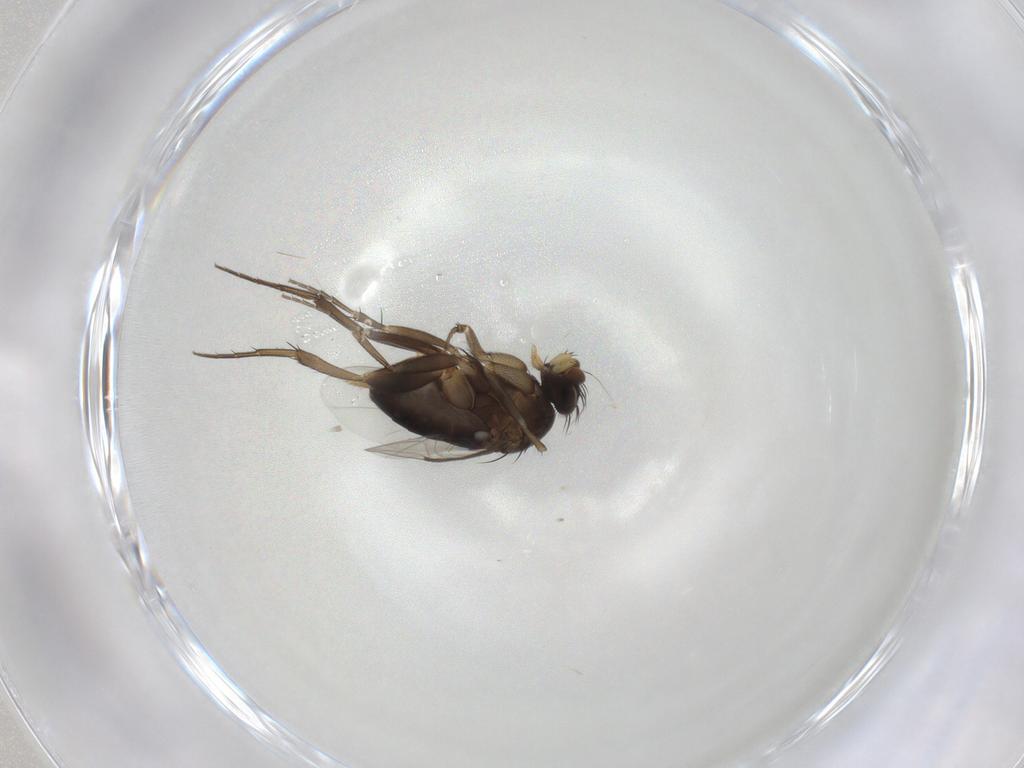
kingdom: Animalia
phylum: Arthropoda
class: Insecta
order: Diptera
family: Phoridae
